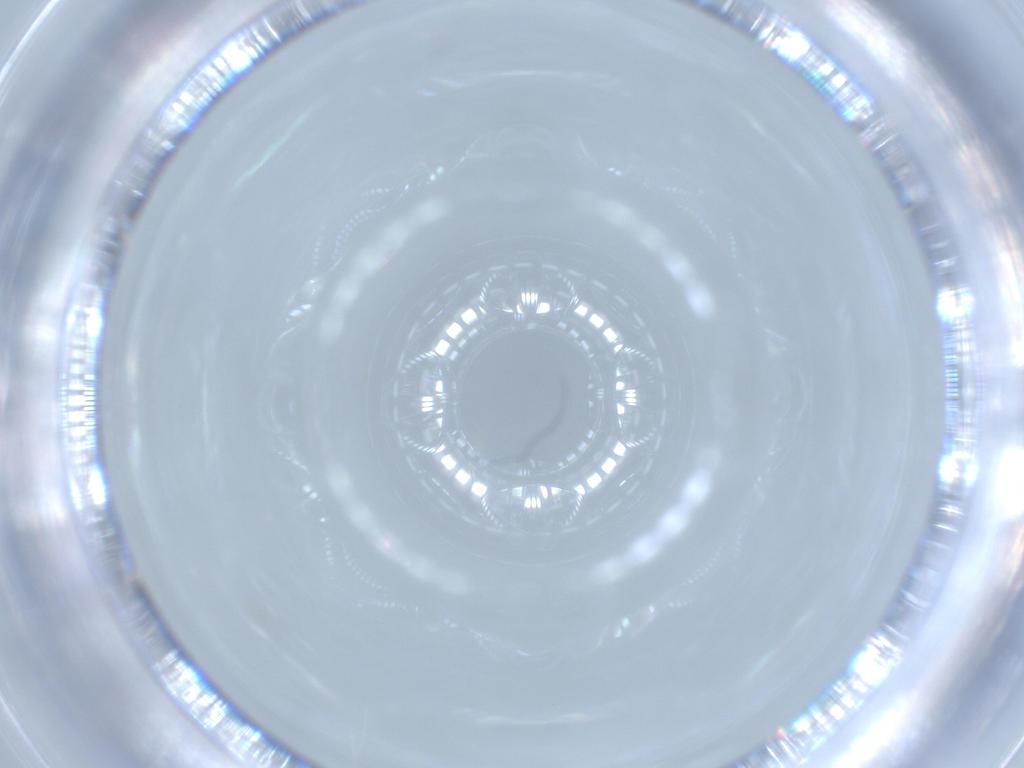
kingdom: Animalia
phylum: Arthropoda
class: Insecta
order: Hemiptera
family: Aleyrodidae
